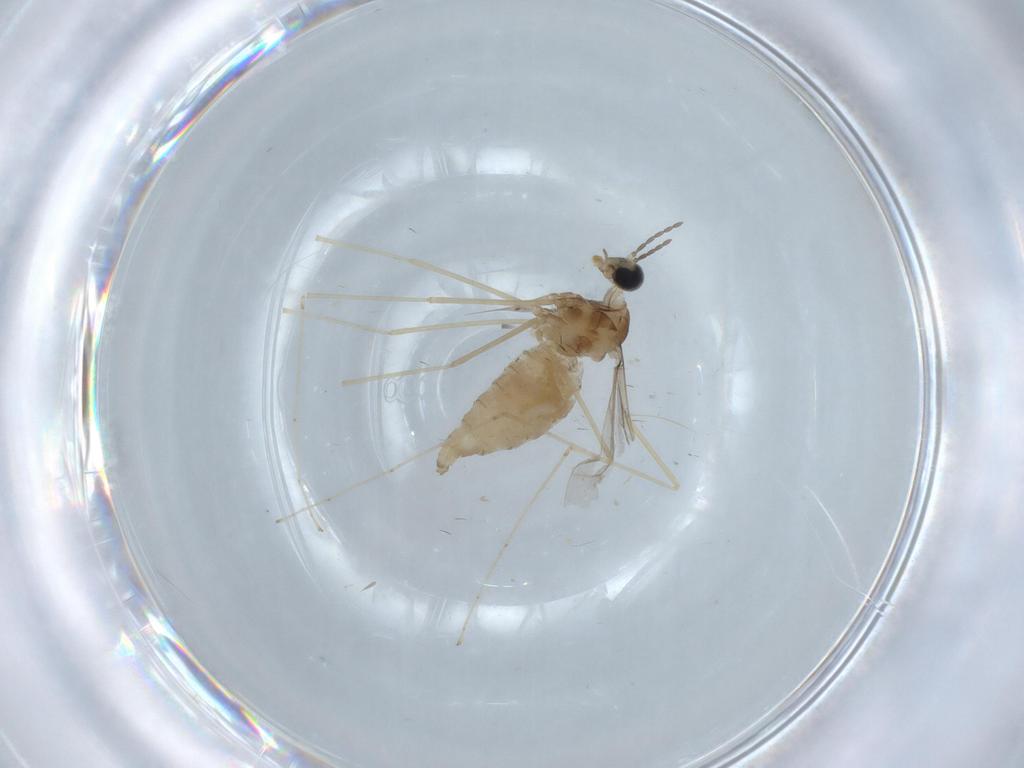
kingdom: Animalia
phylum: Arthropoda
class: Insecta
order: Diptera
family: Cecidomyiidae
